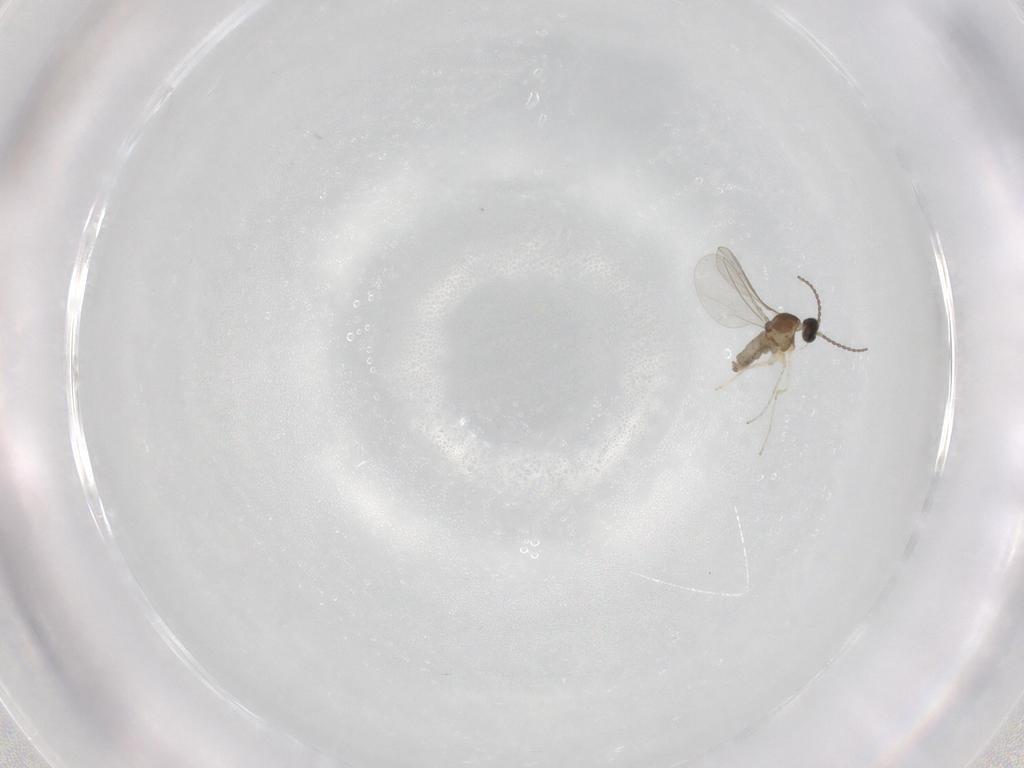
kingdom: Animalia
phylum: Arthropoda
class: Insecta
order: Diptera
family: Cecidomyiidae
